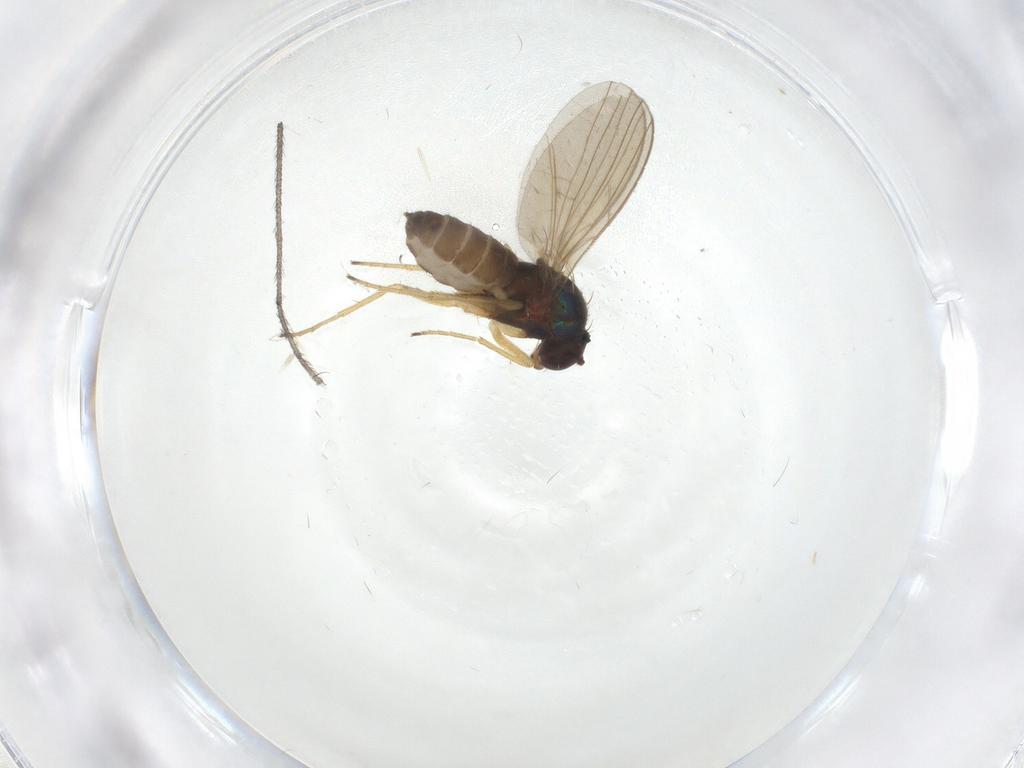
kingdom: Animalia
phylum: Arthropoda
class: Insecta
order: Diptera
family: Dolichopodidae
